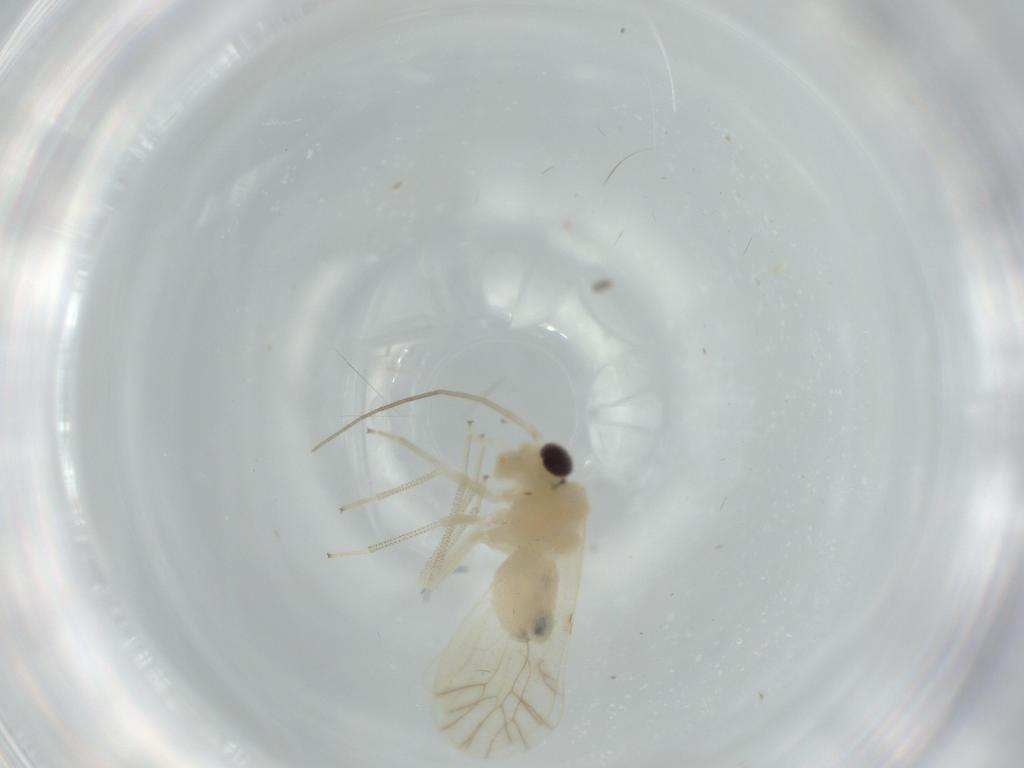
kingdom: Animalia
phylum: Arthropoda
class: Insecta
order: Psocodea
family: Caeciliusidae
